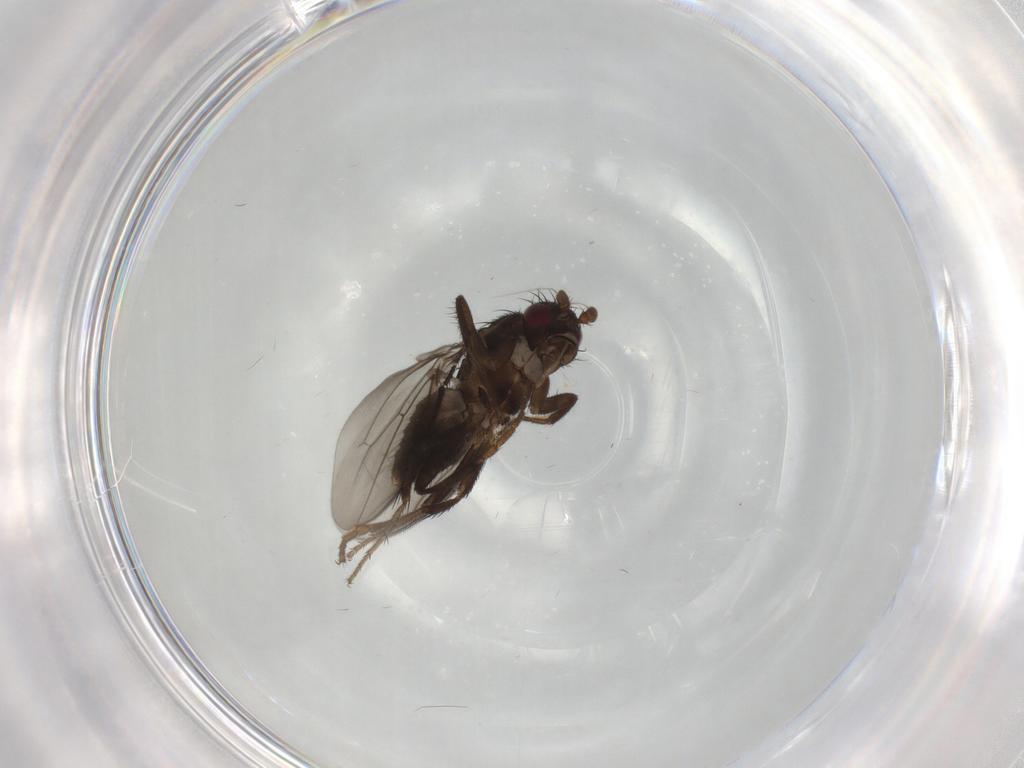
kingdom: Animalia
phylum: Arthropoda
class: Insecta
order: Diptera
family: Sphaeroceridae
